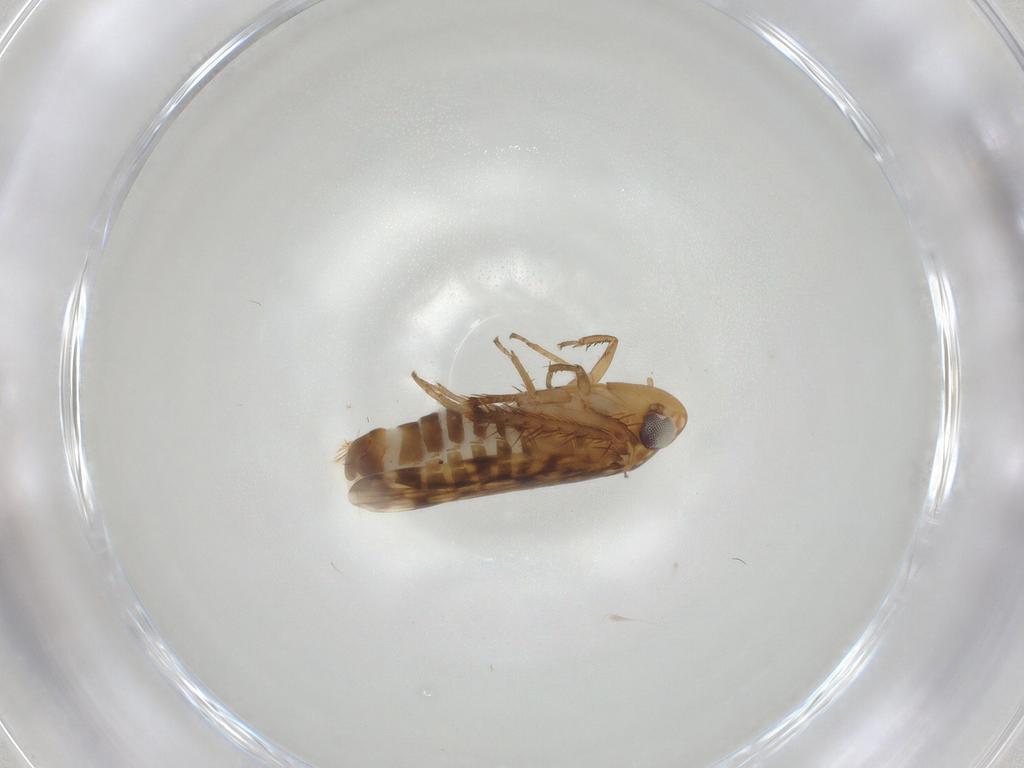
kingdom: Animalia
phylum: Arthropoda
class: Insecta
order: Hemiptera
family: Cicadellidae
